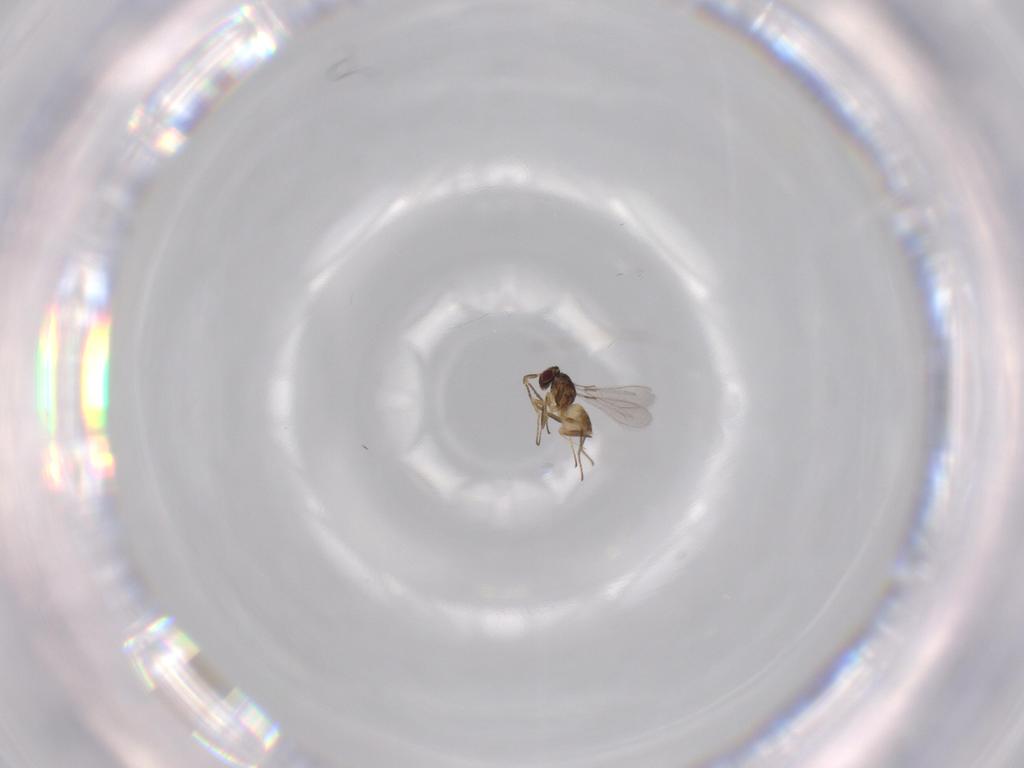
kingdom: Animalia
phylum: Arthropoda
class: Insecta
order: Hymenoptera
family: Mymaridae
